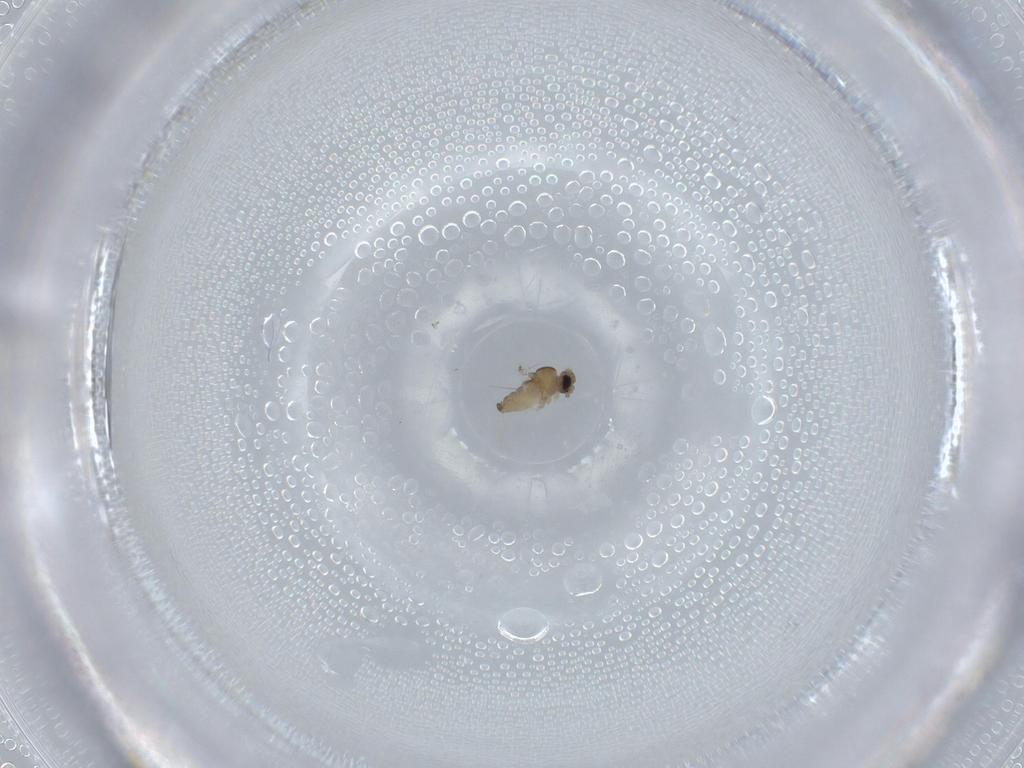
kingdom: Animalia
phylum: Arthropoda
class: Insecta
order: Diptera
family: Cecidomyiidae
